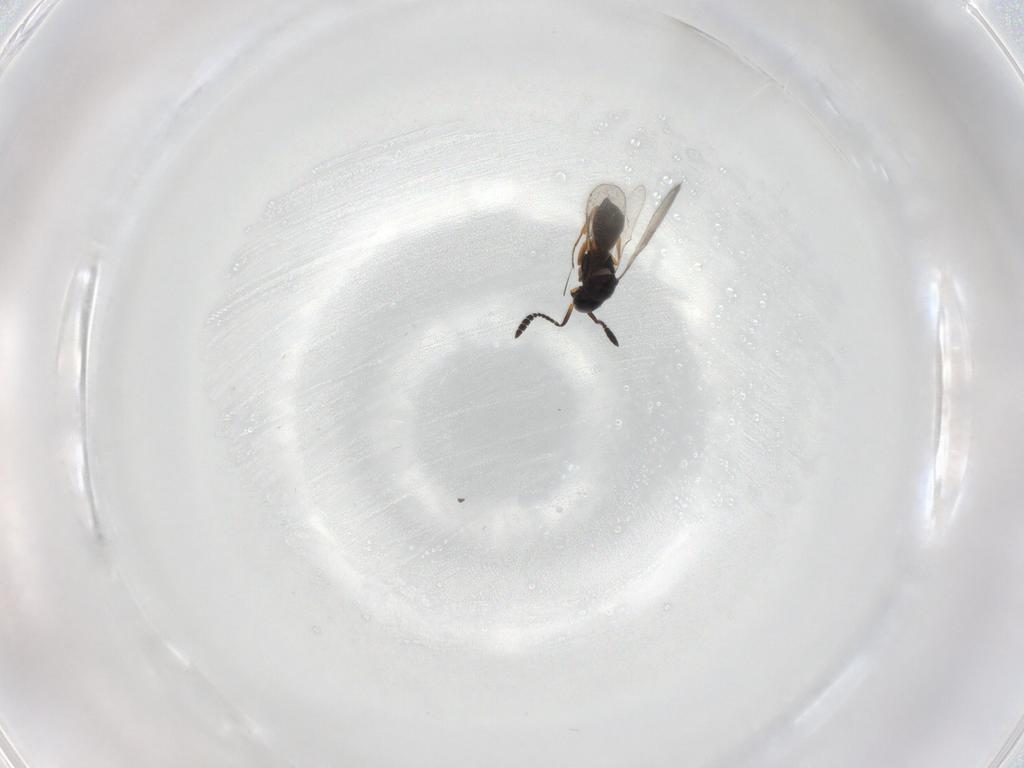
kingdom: Animalia
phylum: Arthropoda
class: Insecta
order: Hymenoptera
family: Scelionidae
